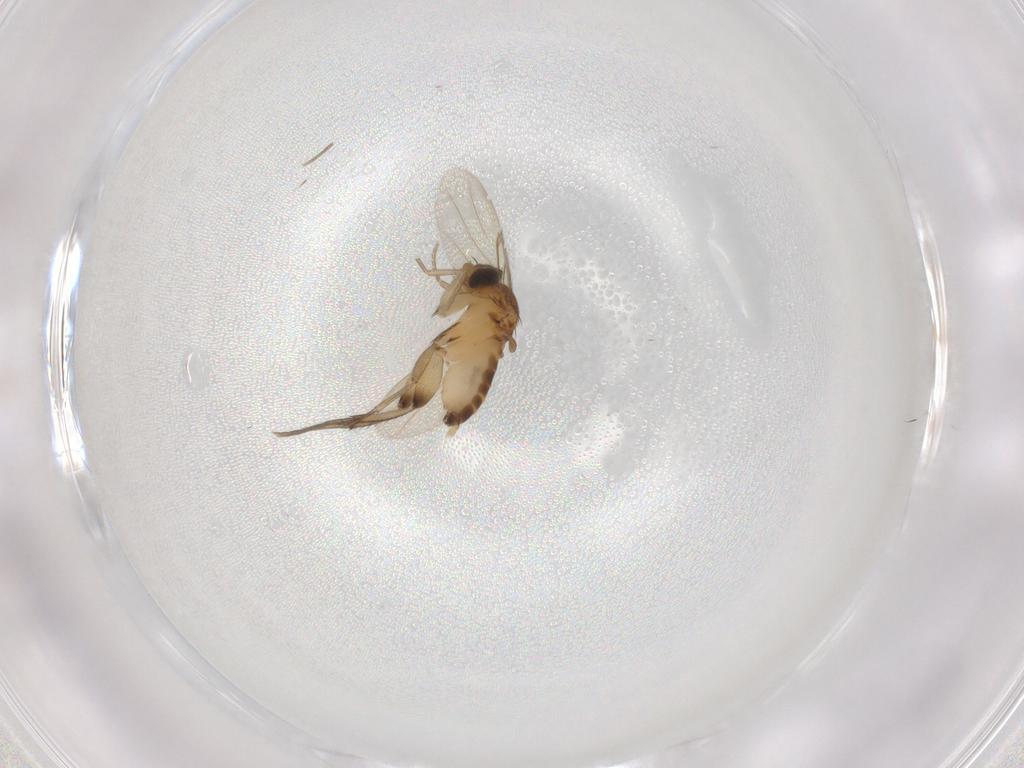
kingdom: Animalia
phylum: Arthropoda
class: Insecta
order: Diptera
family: Phoridae
